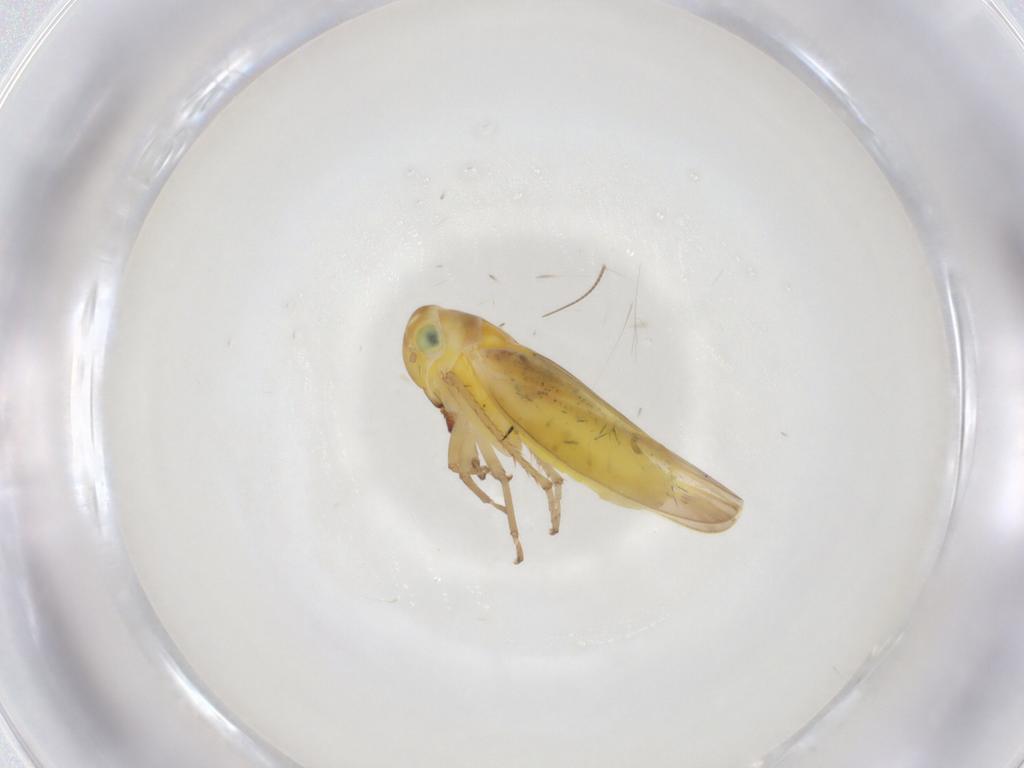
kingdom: Animalia
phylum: Arthropoda
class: Insecta
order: Hemiptera
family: Cicadellidae
